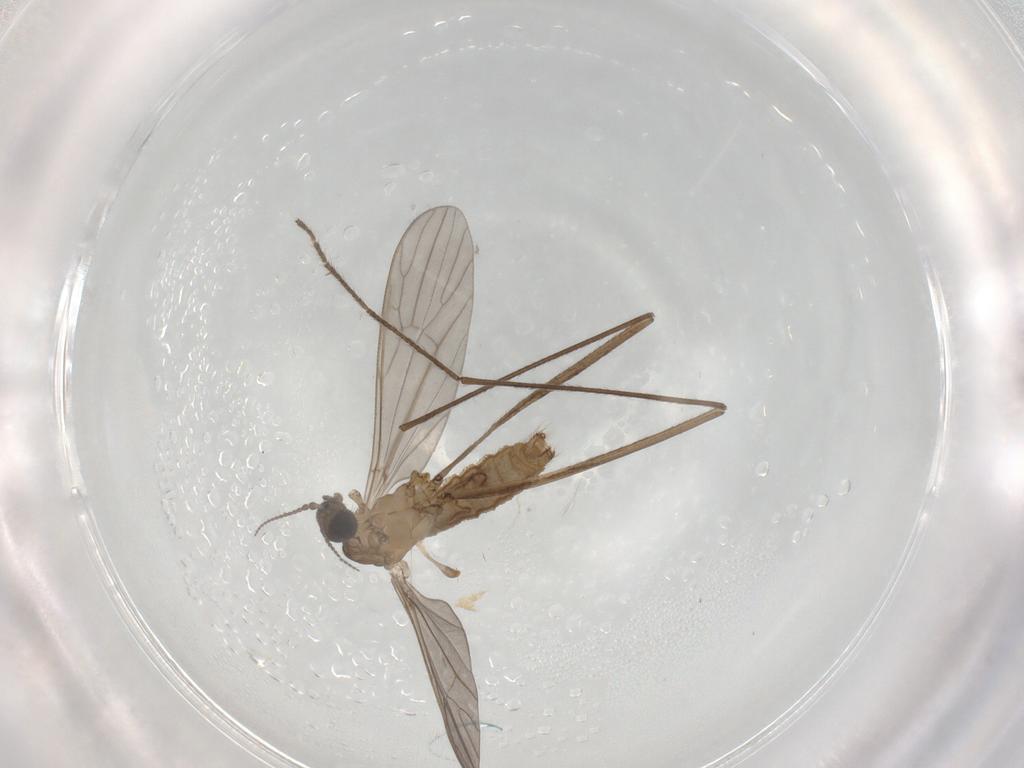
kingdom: Animalia
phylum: Arthropoda
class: Insecta
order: Diptera
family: Limoniidae
